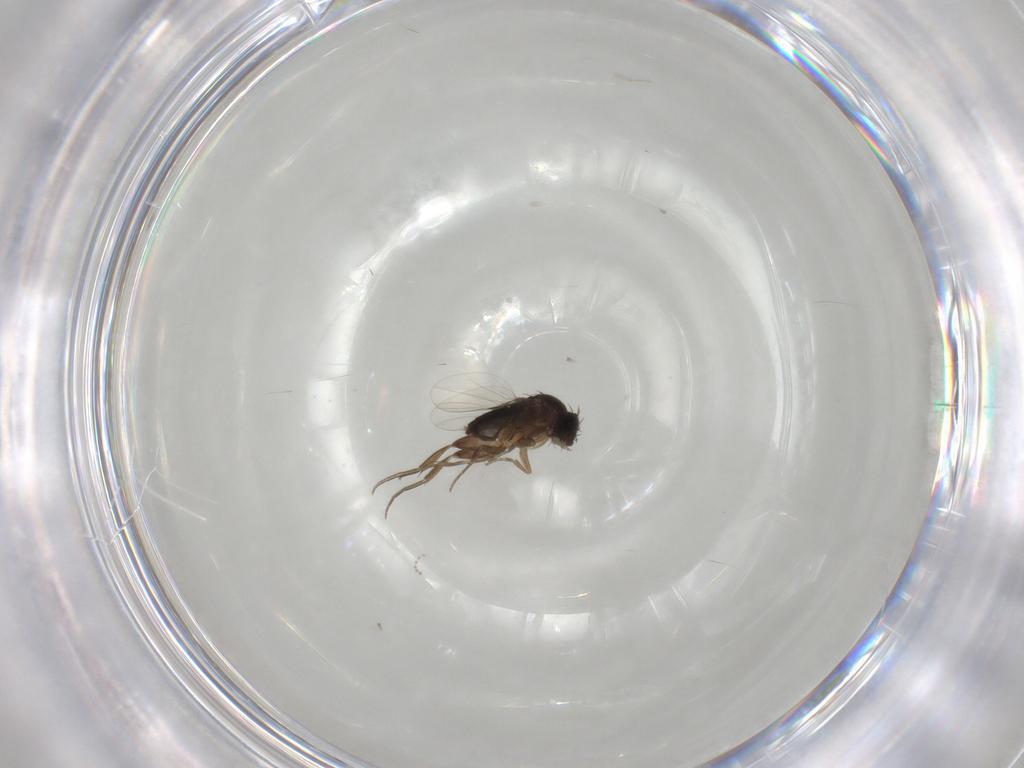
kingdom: Animalia
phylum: Arthropoda
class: Insecta
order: Diptera
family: Phoridae
